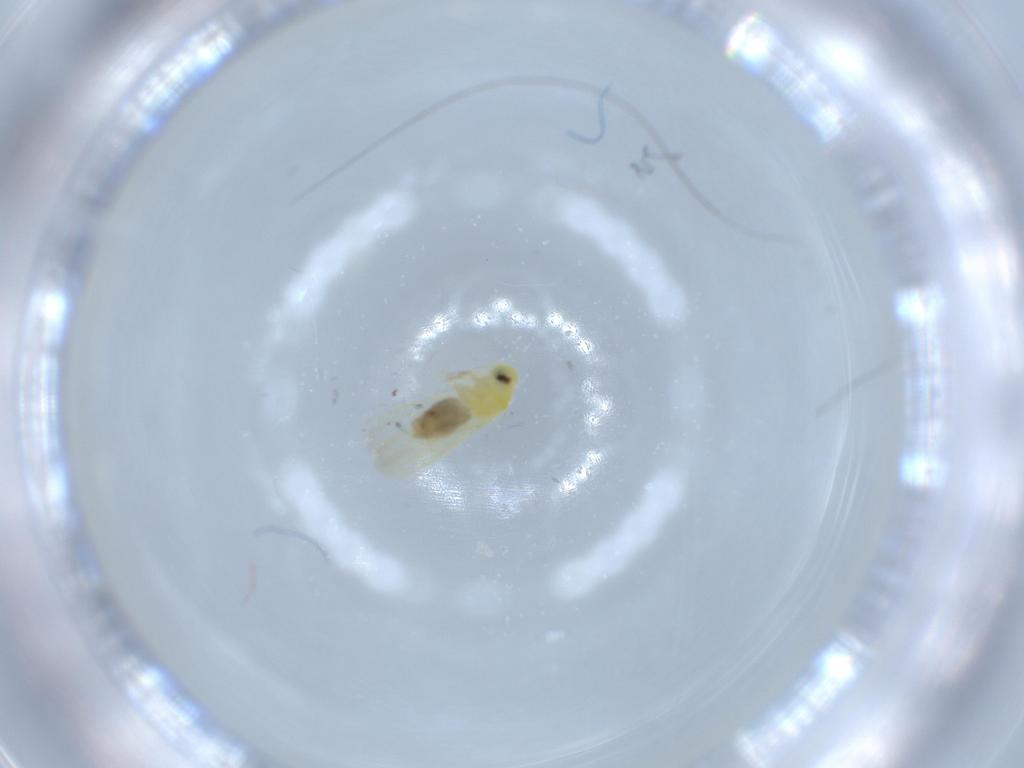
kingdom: Animalia
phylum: Arthropoda
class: Insecta
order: Hemiptera
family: Aleyrodidae
